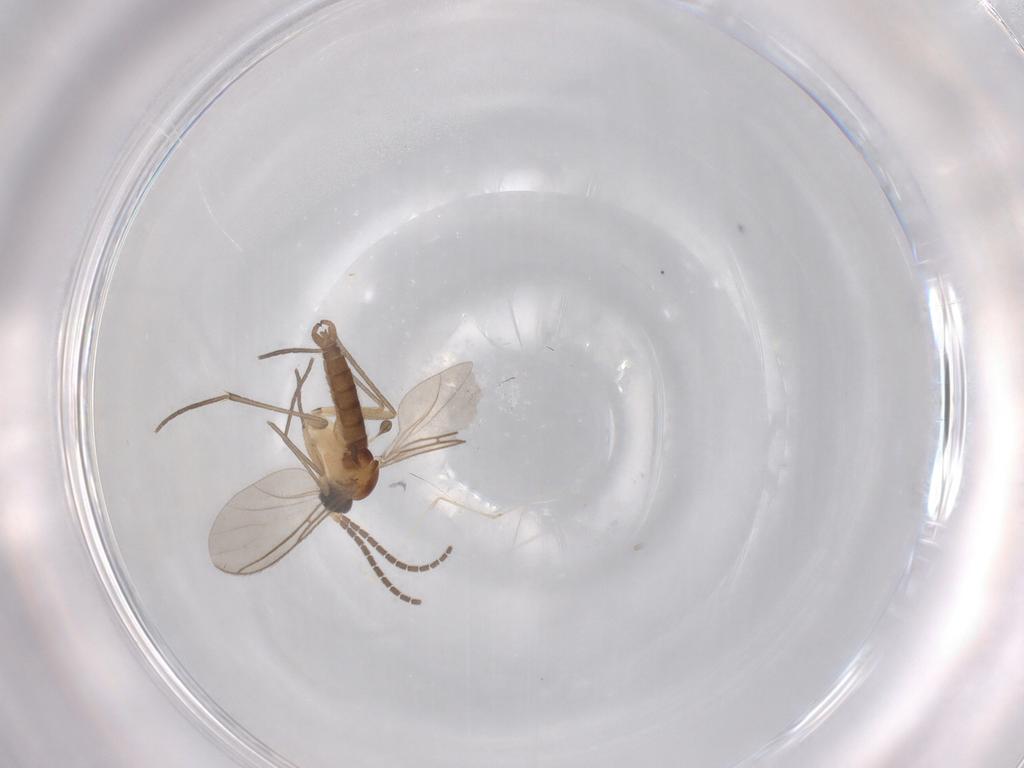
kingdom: Animalia
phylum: Arthropoda
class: Insecta
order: Diptera
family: Sciaridae
